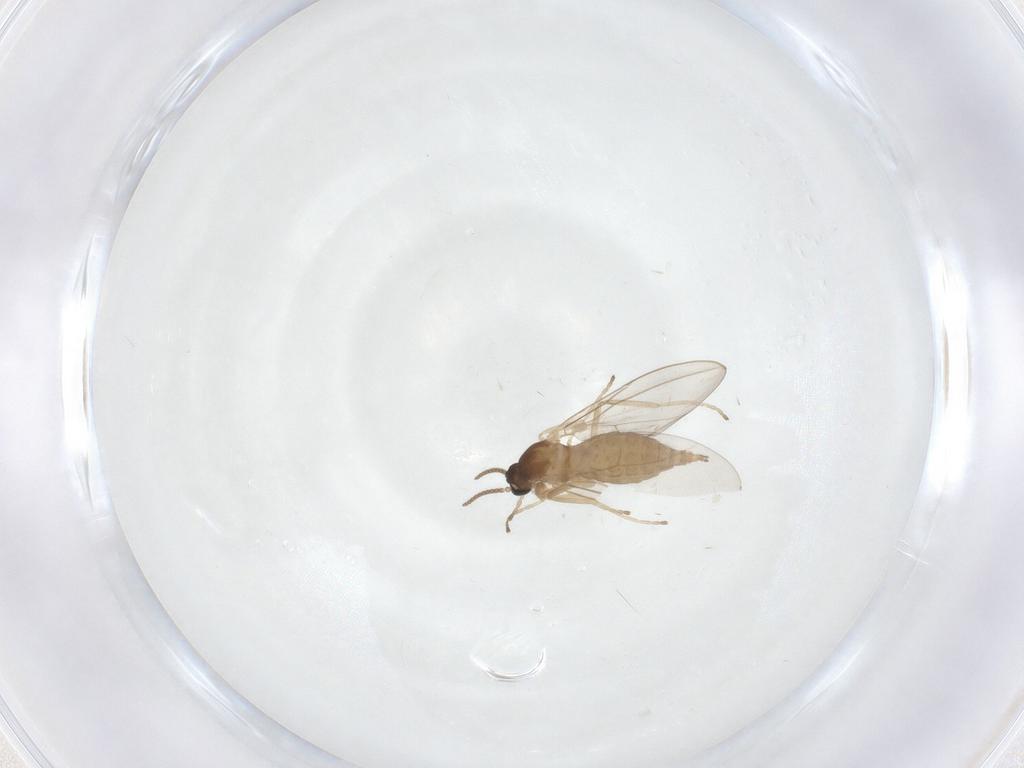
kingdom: Animalia
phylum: Arthropoda
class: Insecta
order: Diptera
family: Cecidomyiidae
